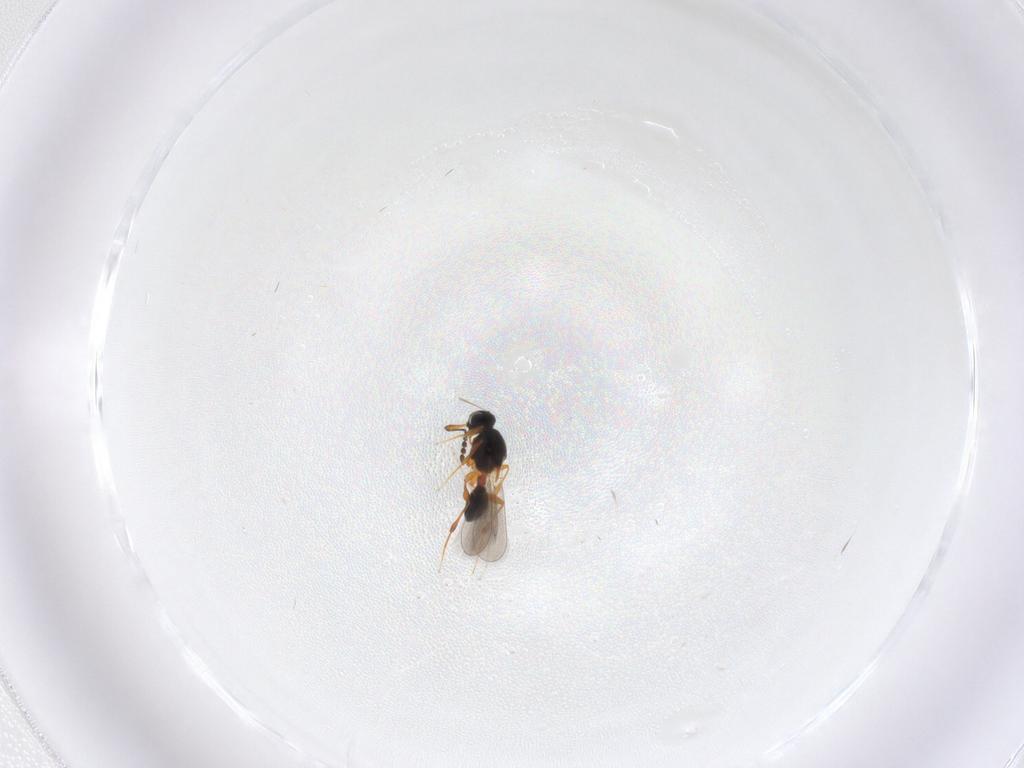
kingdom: Animalia
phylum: Arthropoda
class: Insecta
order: Hymenoptera
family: Platygastridae
